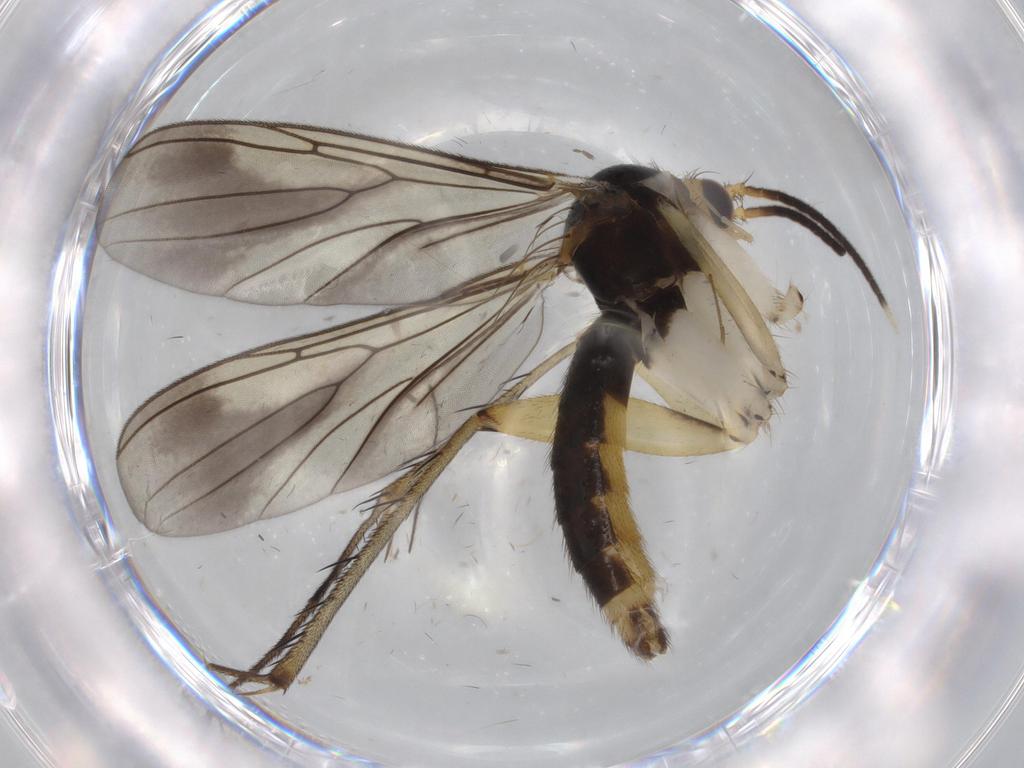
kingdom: Animalia
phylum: Arthropoda
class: Insecta
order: Diptera
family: Mycetophilidae
